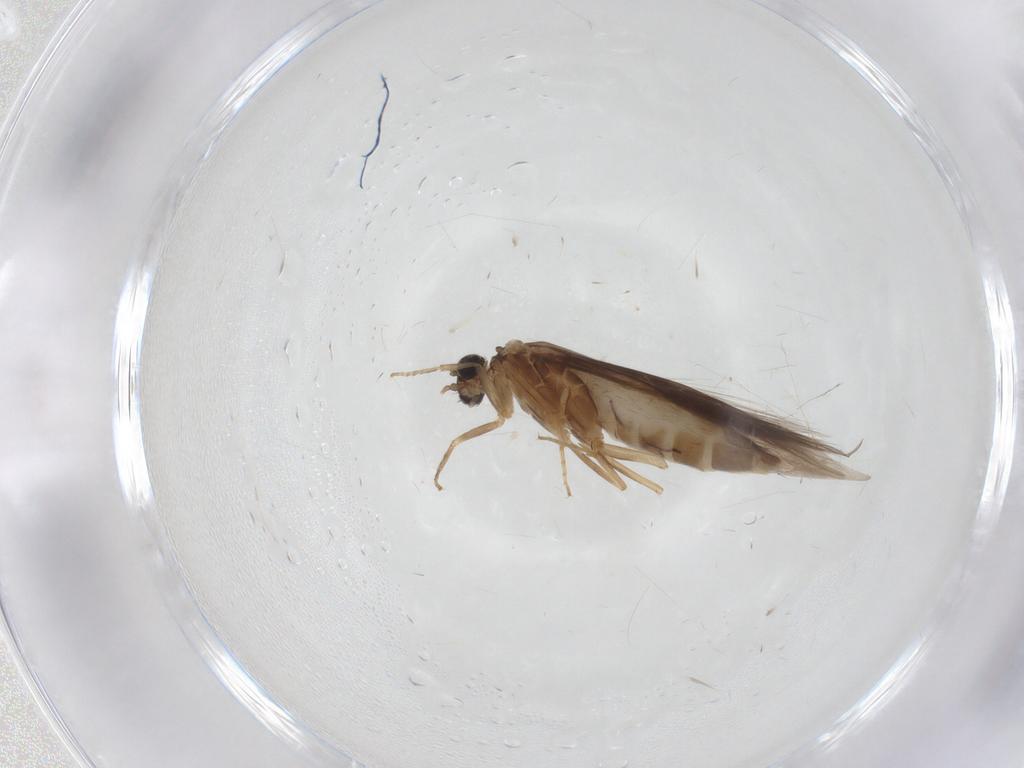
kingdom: Animalia
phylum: Arthropoda
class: Insecta
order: Trichoptera
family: Hydroptilidae
